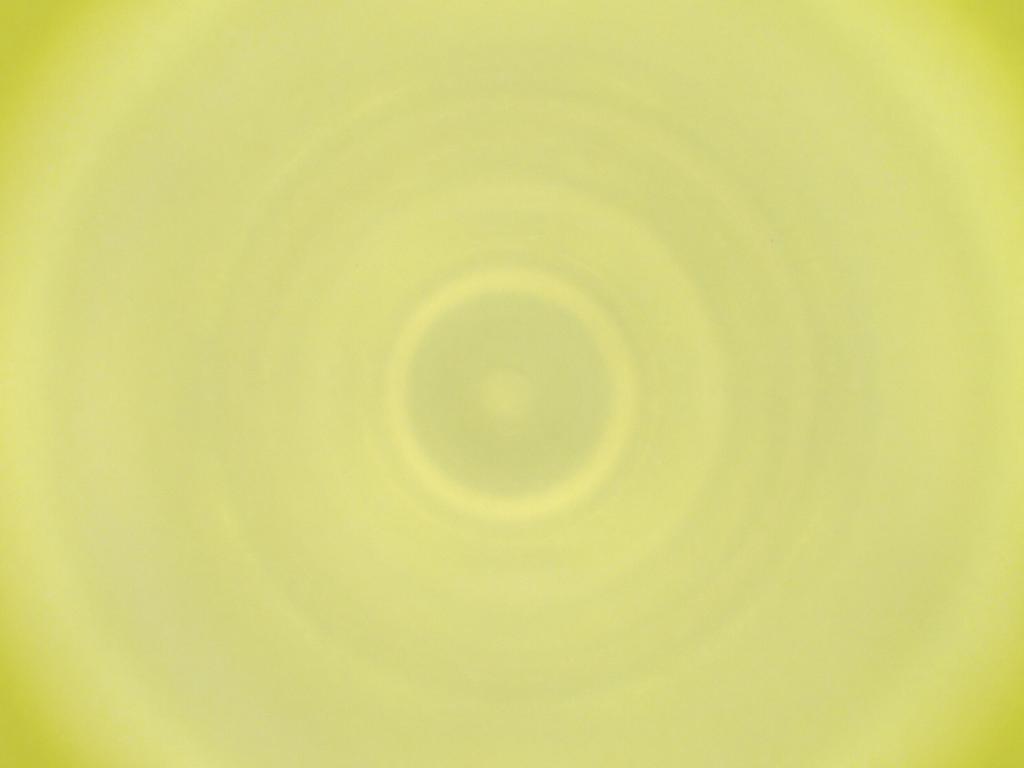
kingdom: Animalia
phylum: Arthropoda
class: Insecta
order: Diptera
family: Cecidomyiidae
